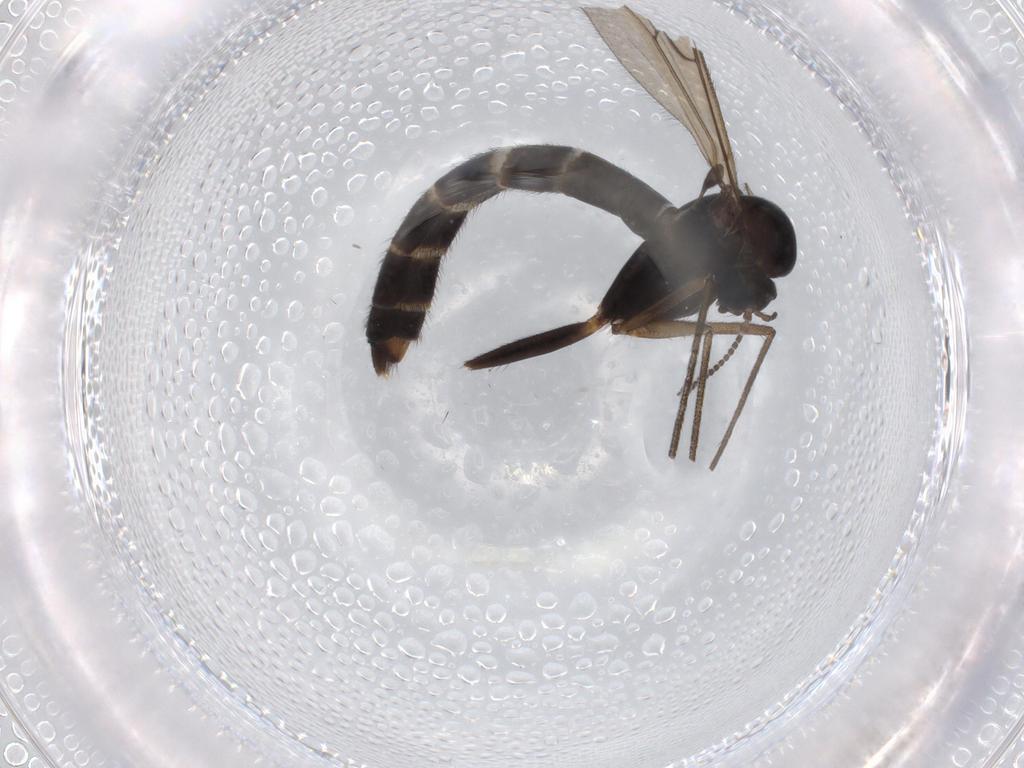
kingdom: Animalia
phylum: Arthropoda
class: Insecta
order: Diptera
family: Ditomyiidae
